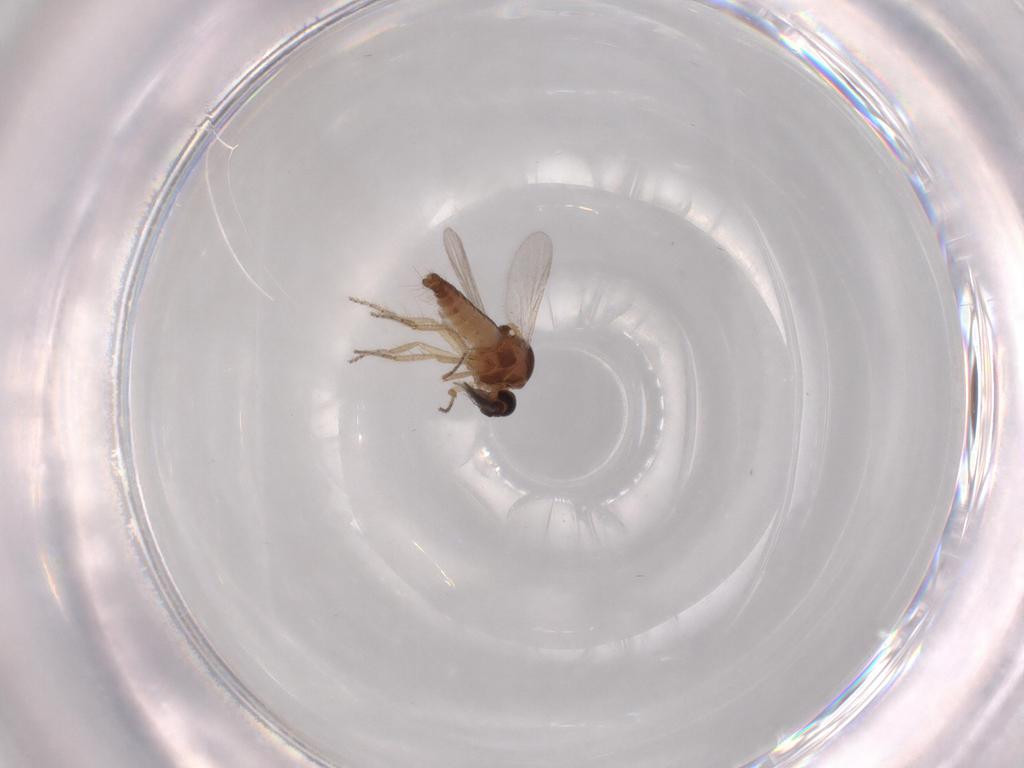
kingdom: Animalia
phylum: Arthropoda
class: Insecta
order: Diptera
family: Ceratopogonidae
